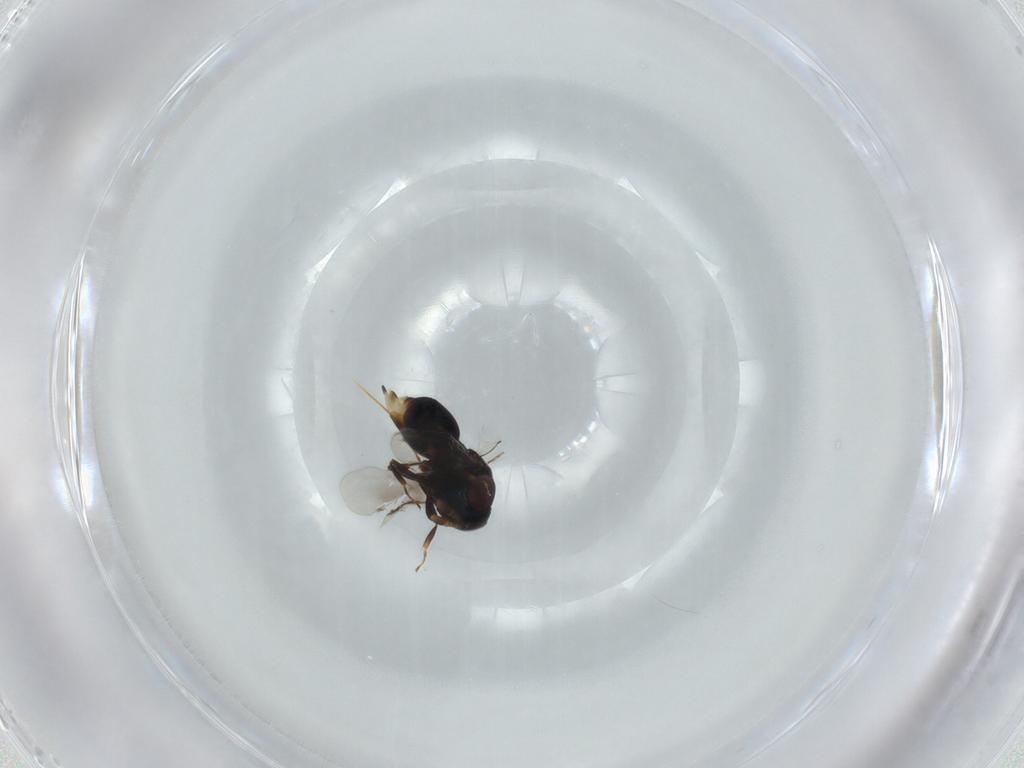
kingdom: Animalia
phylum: Arthropoda
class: Insecta
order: Hymenoptera
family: Encyrtidae
